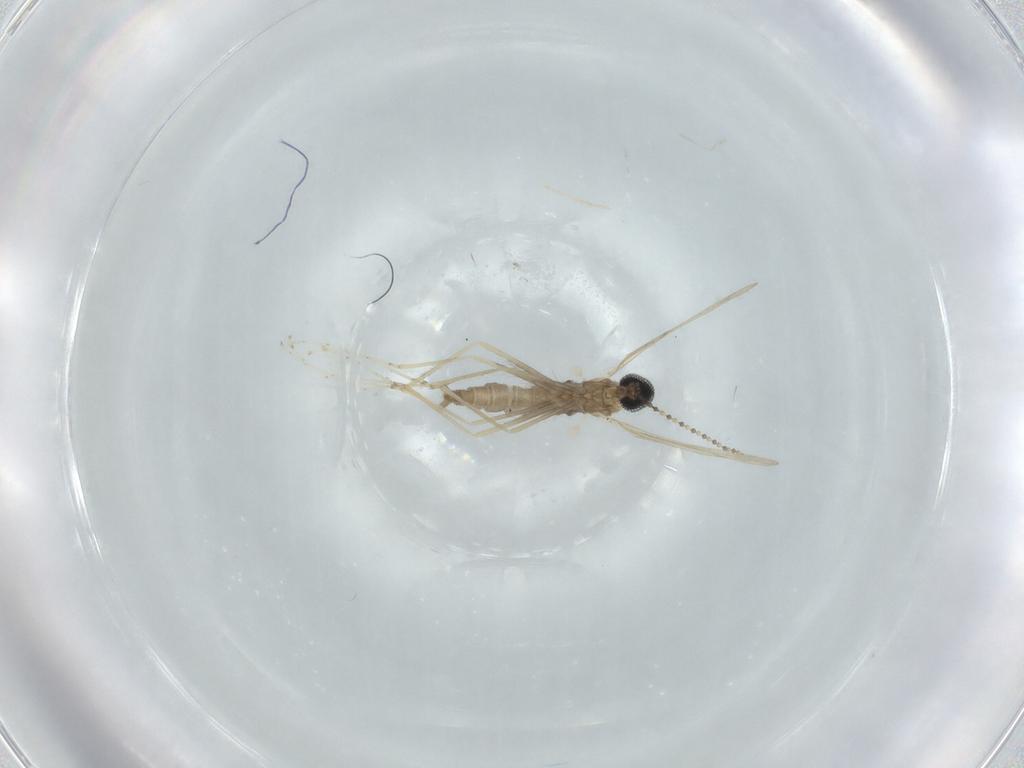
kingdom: Animalia
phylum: Arthropoda
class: Insecta
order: Diptera
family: Cecidomyiidae
